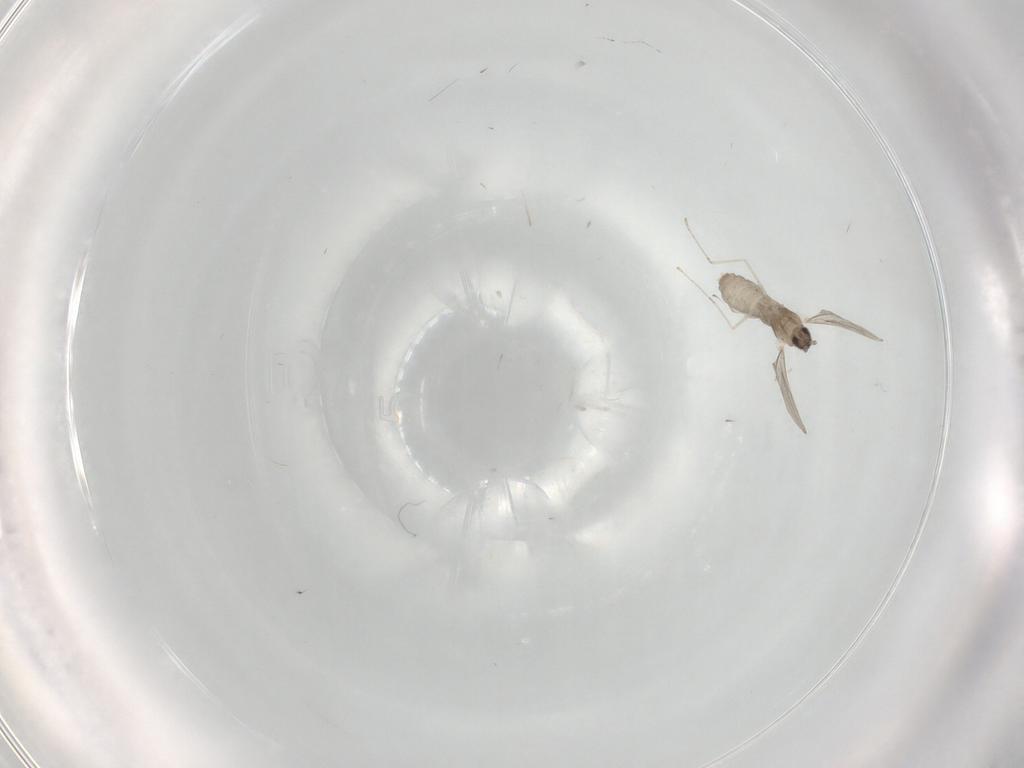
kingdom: Animalia
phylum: Arthropoda
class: Insecta
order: Diptera
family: Cecidomyiidae
